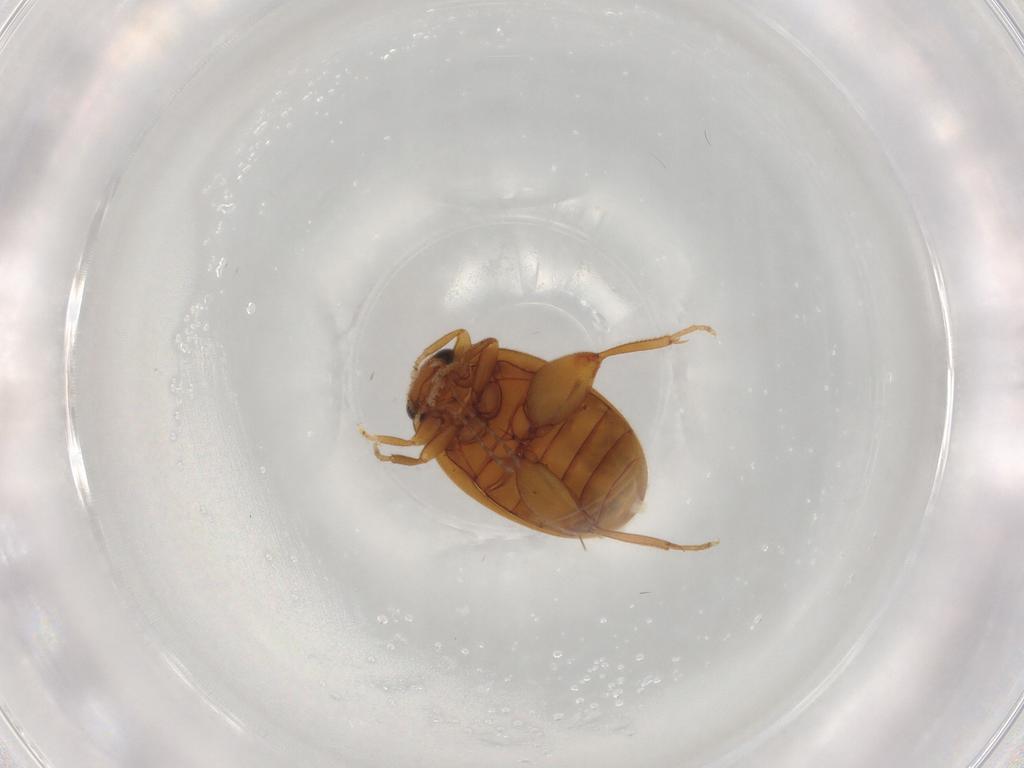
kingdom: Animalia
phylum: Arthropoda
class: Insecta
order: Coleoptera
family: Scirtidae
